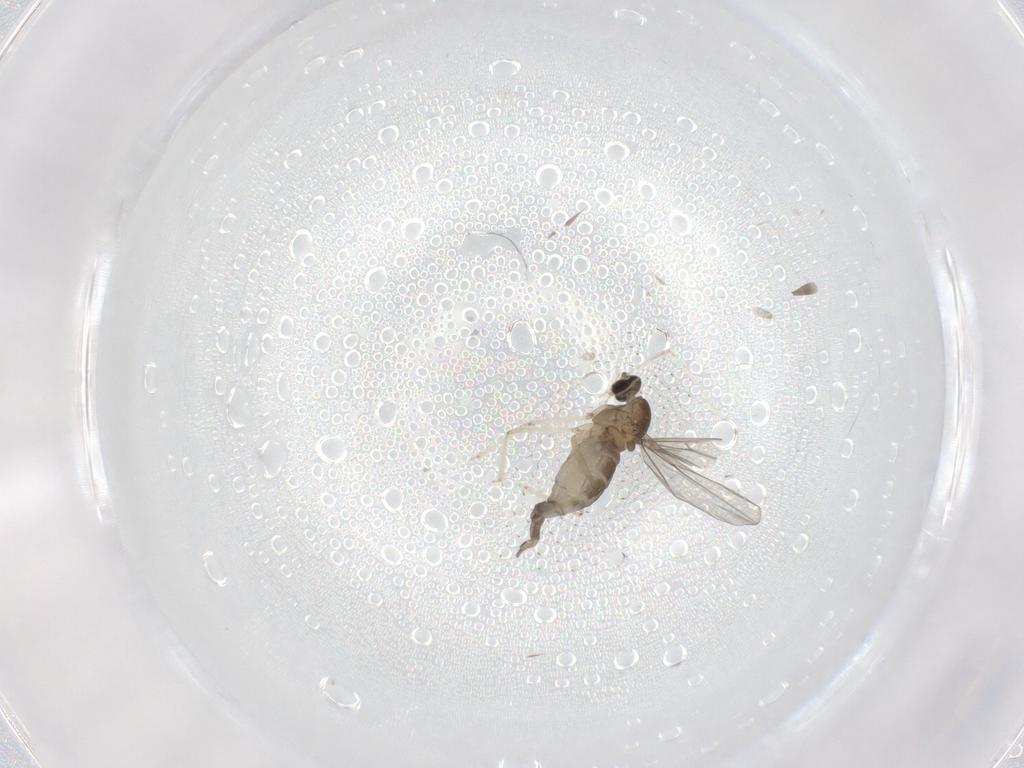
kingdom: Animalia
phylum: Arthropoda
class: Insecta
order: Diptera
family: Cecidomyiidae
